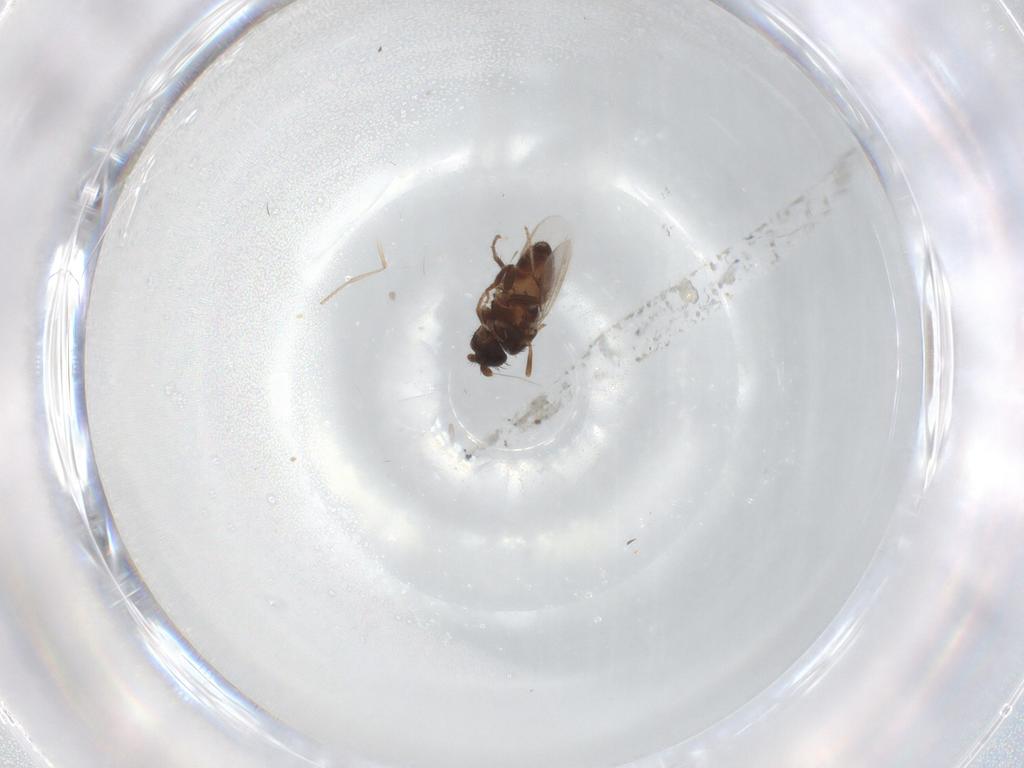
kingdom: Animalia
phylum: Arthropoda
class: Insecta
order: Diptera
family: Sphaeroceridae
